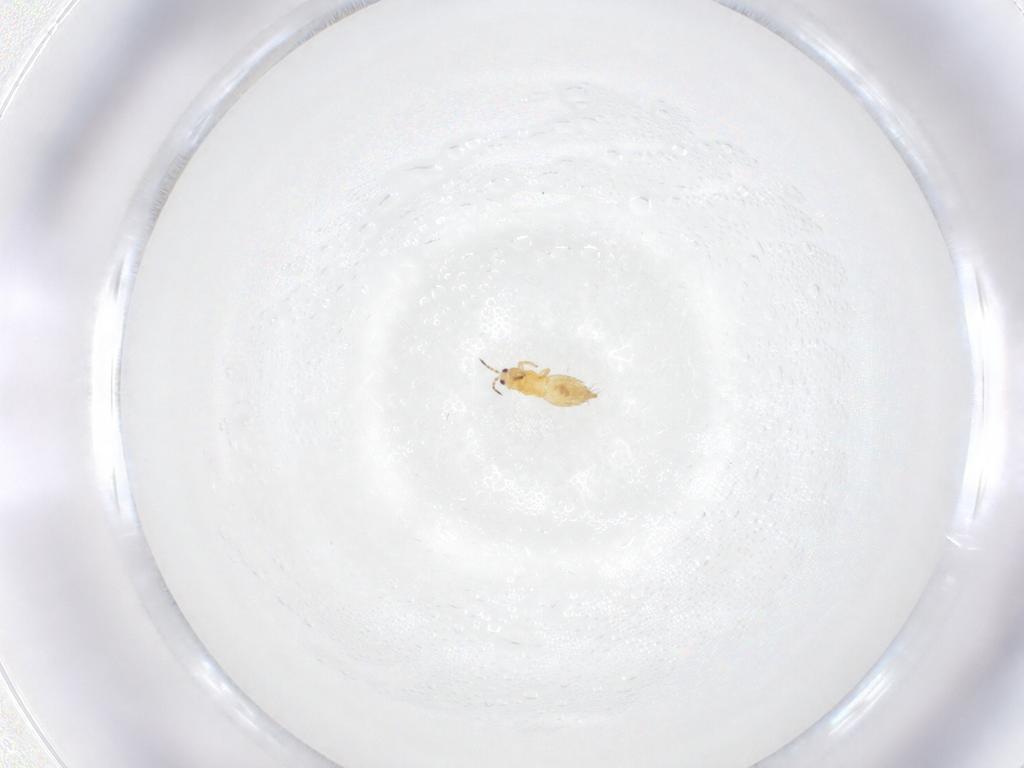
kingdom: Animalia
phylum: Arthropoda
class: Insecta
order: Thysanoptera
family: Thripidae
